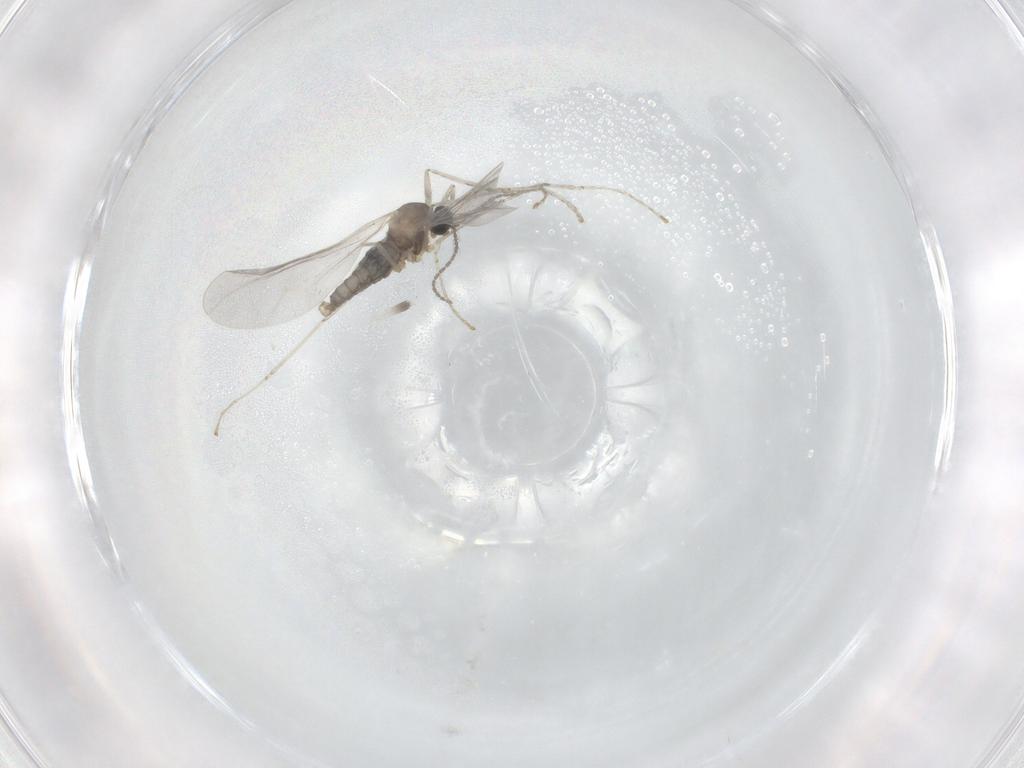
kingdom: Animalia
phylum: Arthropoda
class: Insecta
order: Diptera
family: Cecidomyiidae
